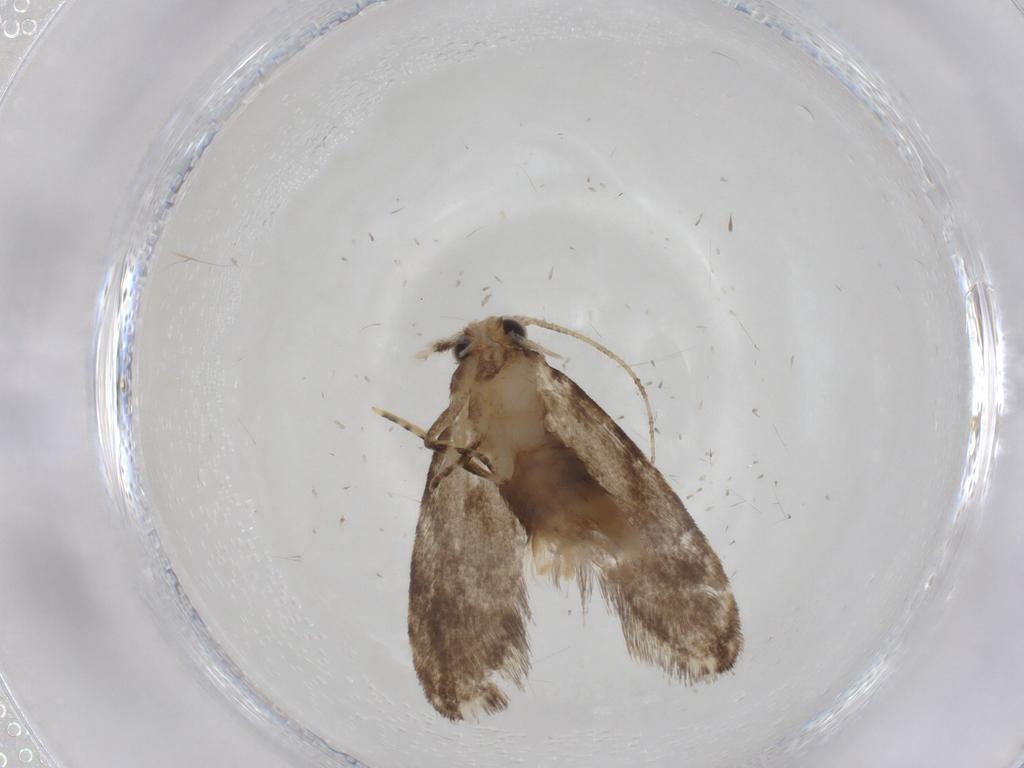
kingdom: Animalia
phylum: Arthropoda
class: Insecta
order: Lepidoptera
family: Tineidae
